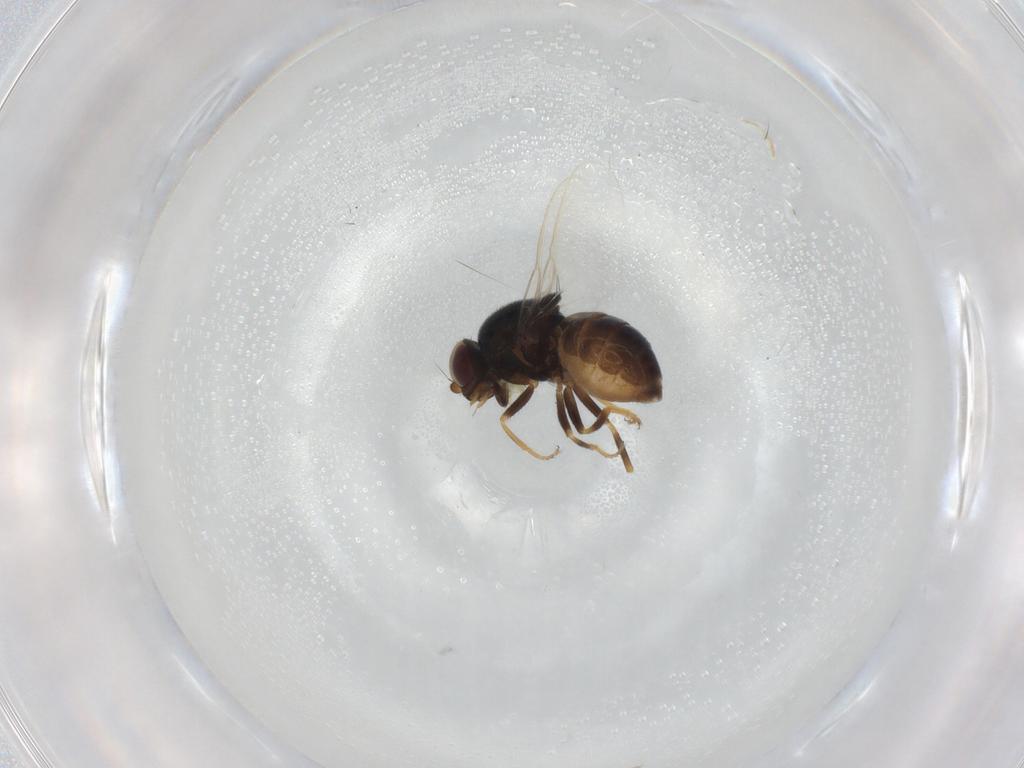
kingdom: Animalia
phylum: Arthropoda
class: Insecta
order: Diptera
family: Chloropidae
